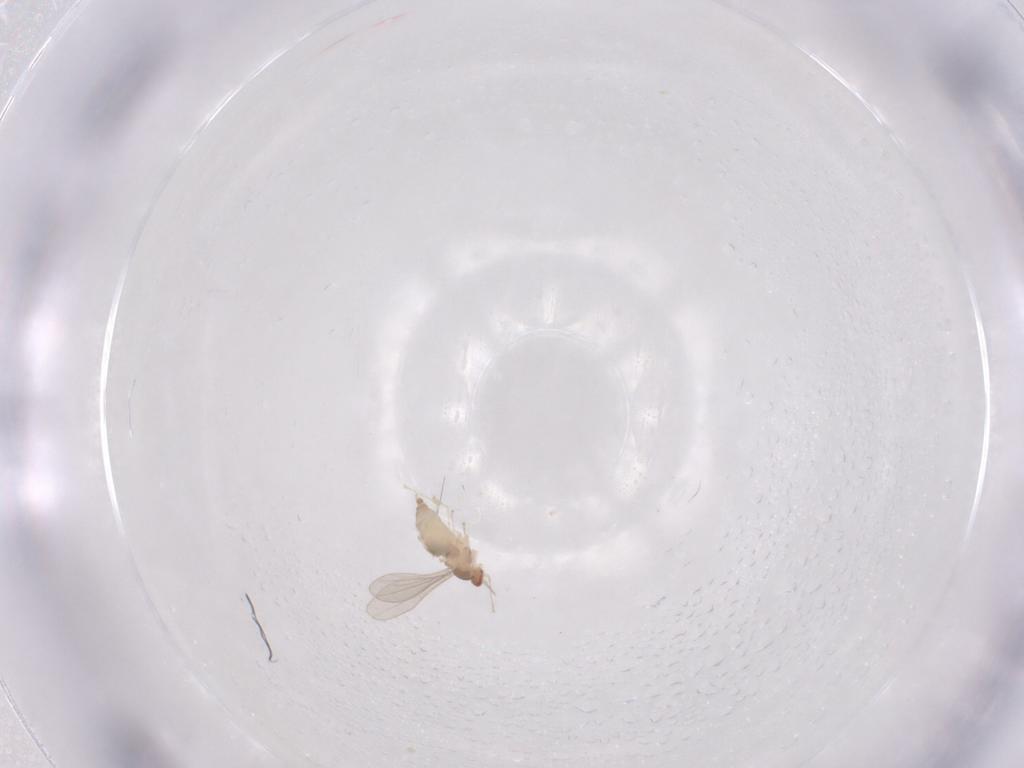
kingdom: Animalia
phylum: Arthropoda
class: Insecta
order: Diptera
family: Cecidomyiidae
